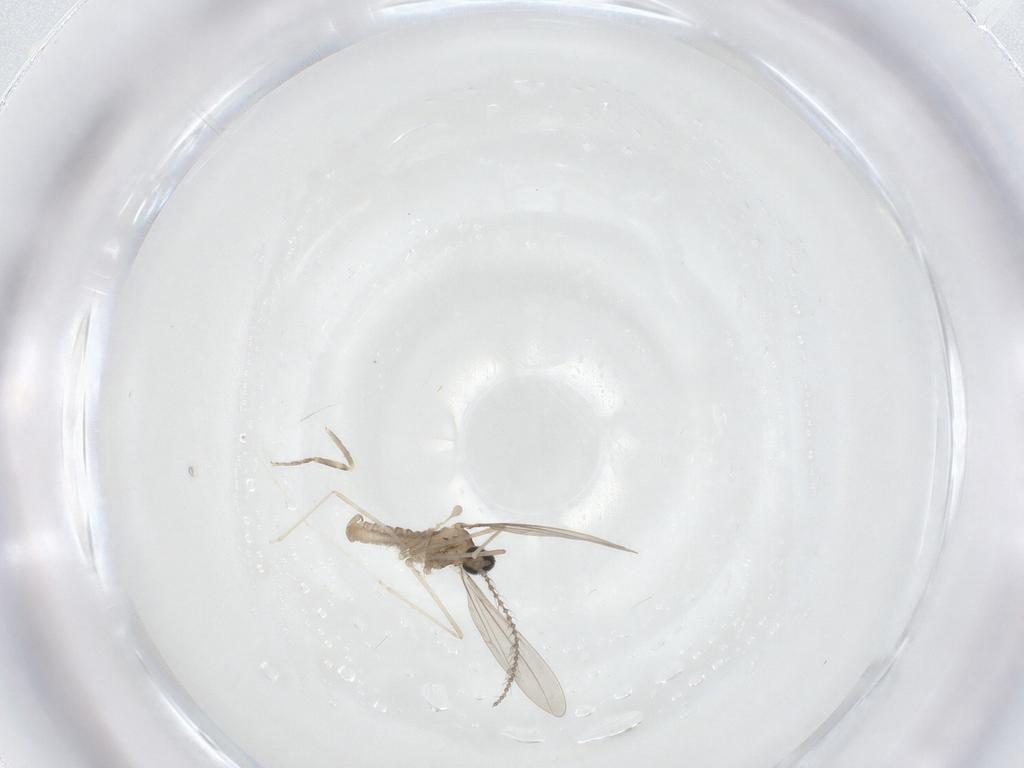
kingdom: Animalia
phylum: Arthropoda
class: Insecta
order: Diptera
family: Ceratopogonidae
